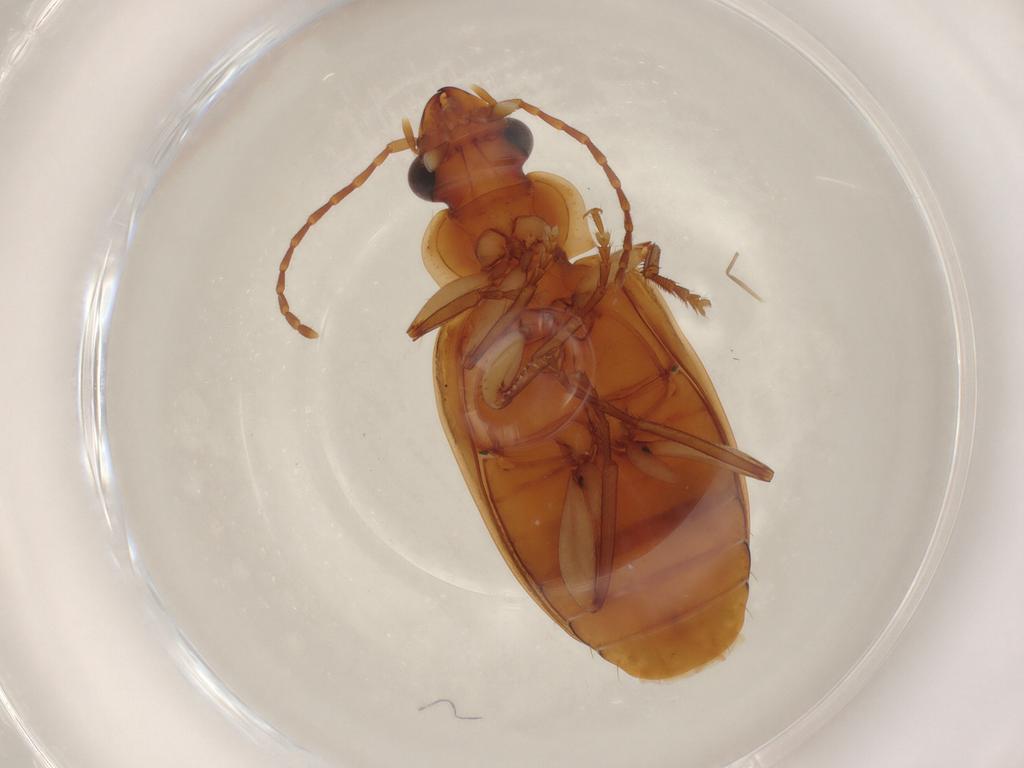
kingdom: Animalia
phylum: Arthropoda
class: Insecta
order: Coleoptera
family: Carabidae
